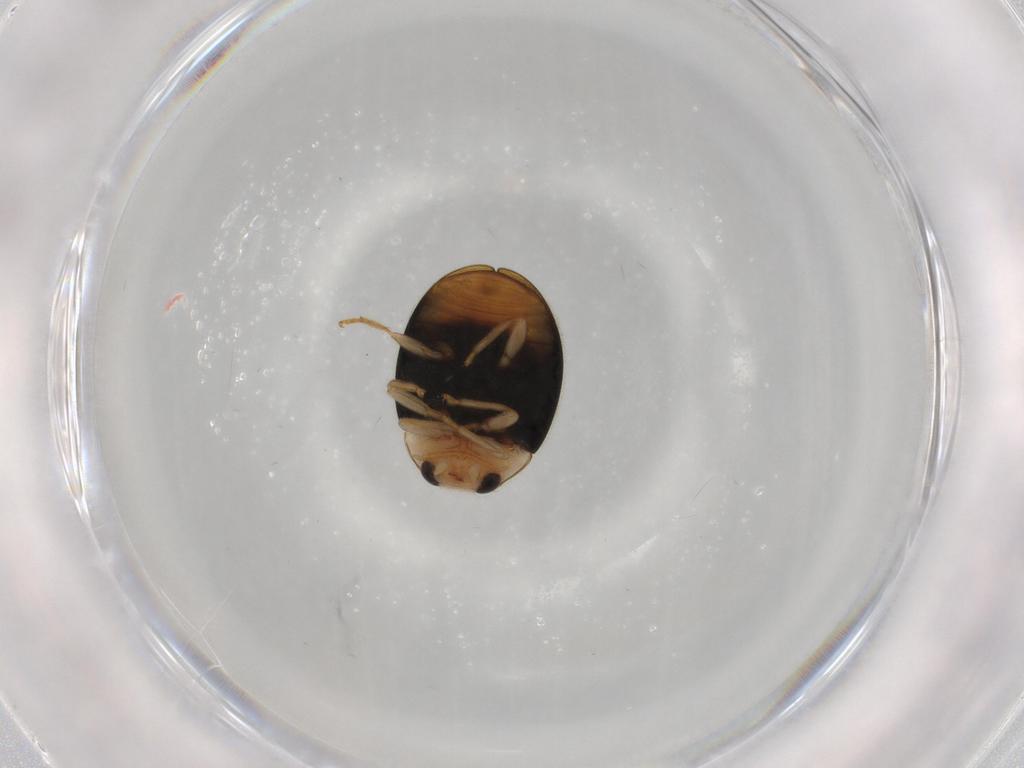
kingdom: Animalia
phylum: Arthropoda
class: Insecta
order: Coleoptera
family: Coccinellidae
